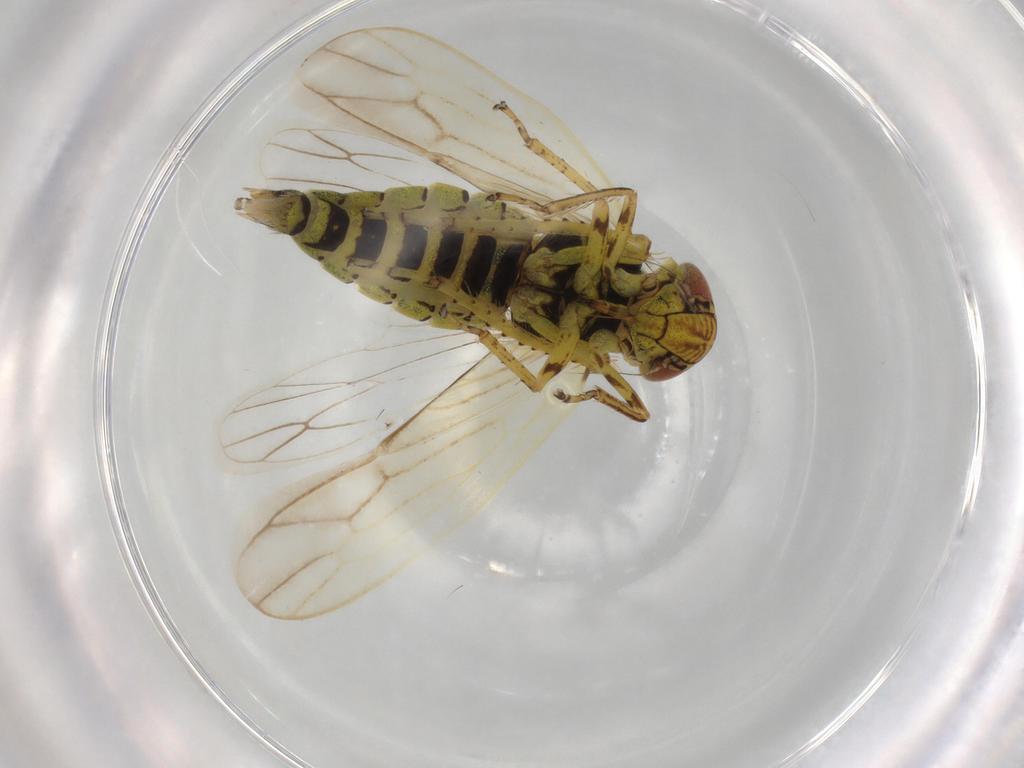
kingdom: Animalia
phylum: Arthropoda
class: Insecta
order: Hemiptera
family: Cicadellidae
